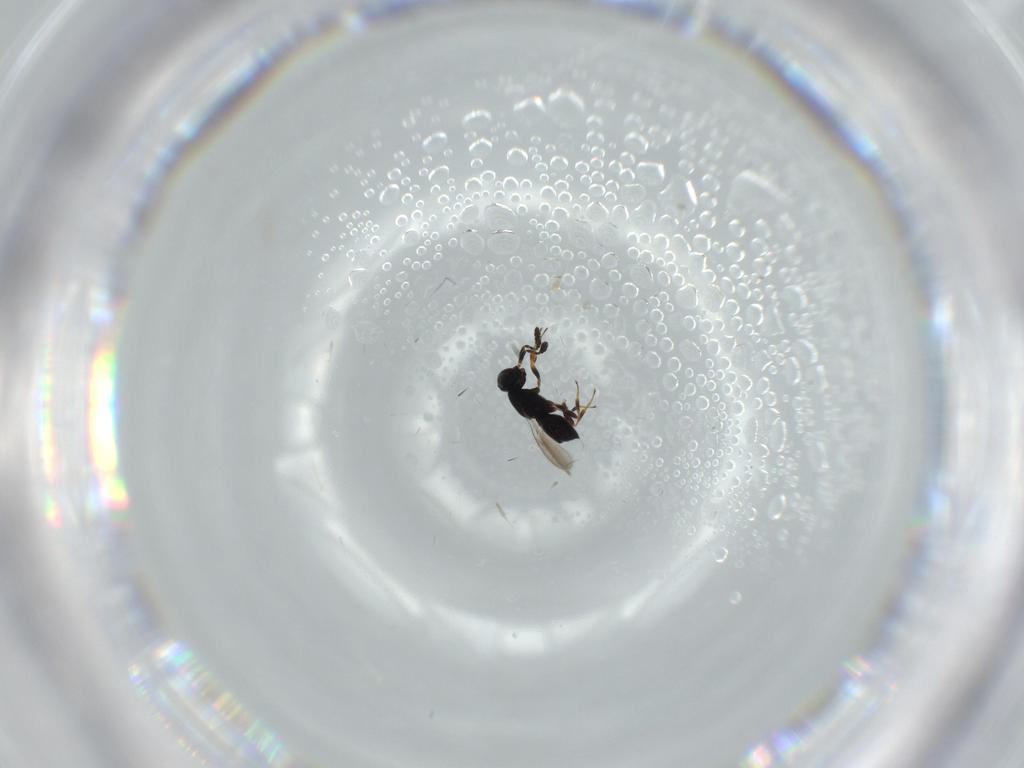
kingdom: Animalia
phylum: Arthropoda
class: Insecta
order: Hymenoptera
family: Scelionidae
